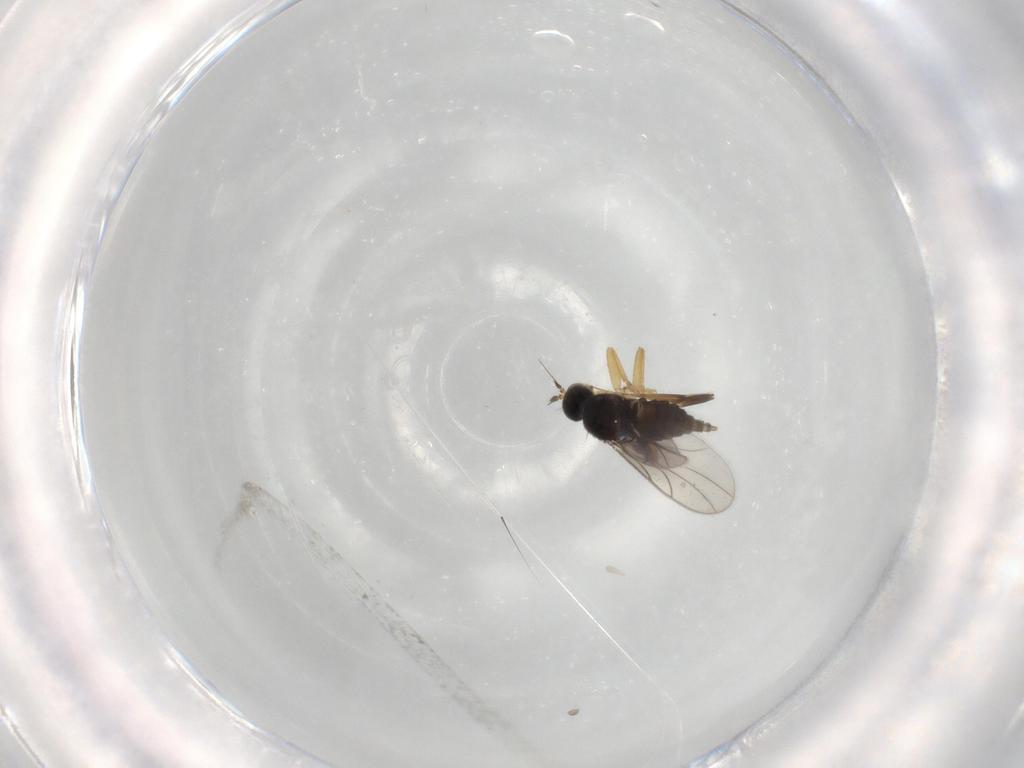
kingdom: Animalia
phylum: Arthropoda
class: Insecta
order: Diptera
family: Hybotidae
